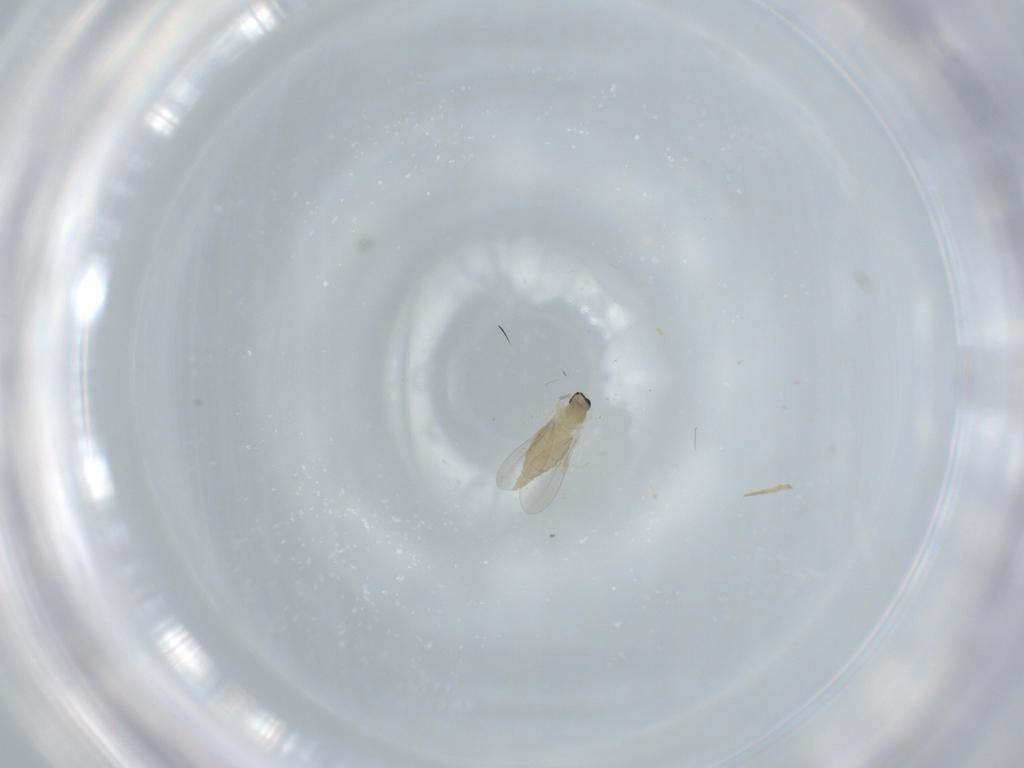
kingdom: Animalia
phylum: Arthropoda
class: Insecta
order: Diptera
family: Cecidomyiidae
